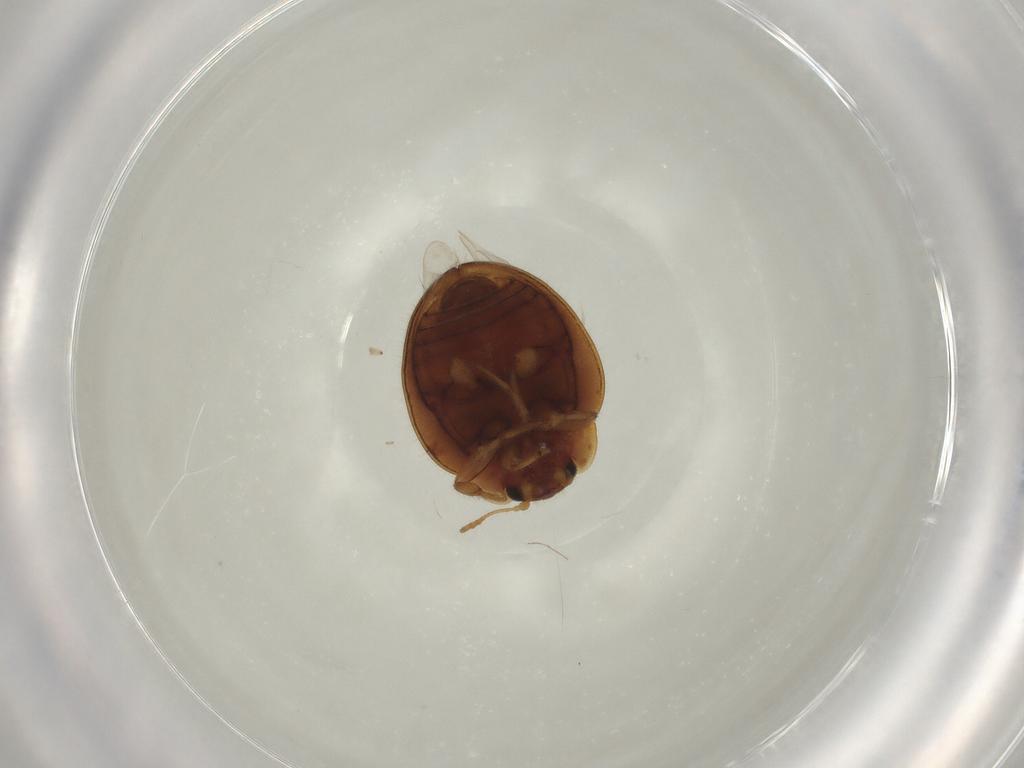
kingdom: Animalia
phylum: Arthropoda
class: Insecta
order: Coleoptera
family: Coccinellidae
